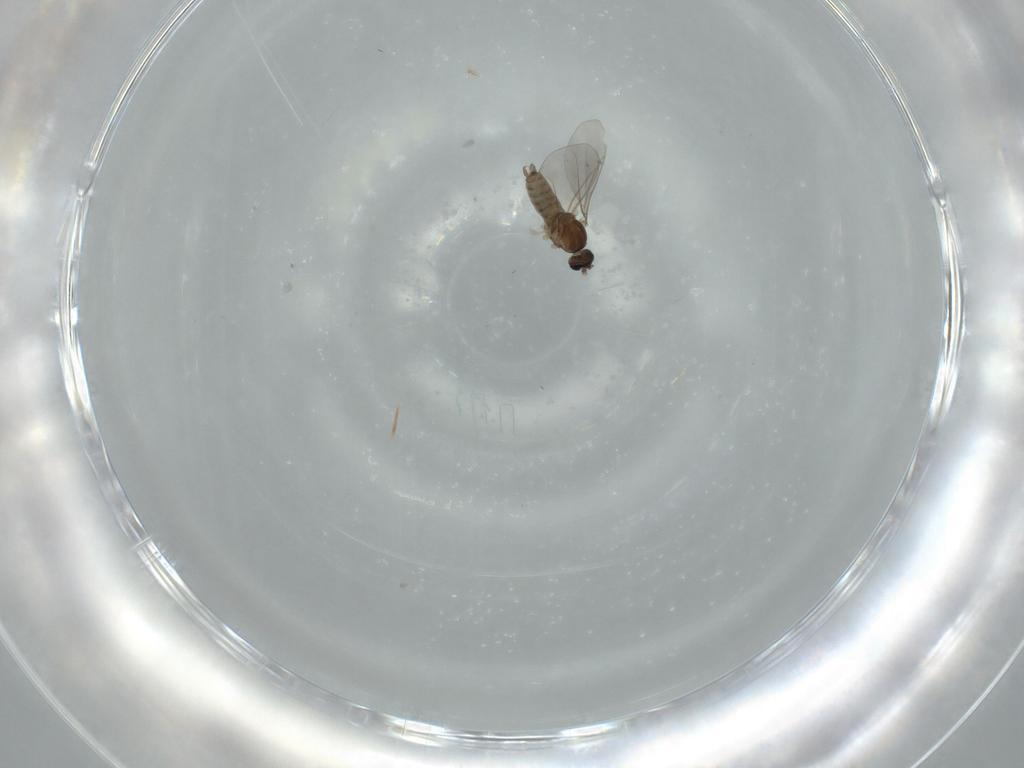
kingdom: Animalia
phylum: Arthropoda
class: Insecta
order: Diptera
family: Cecidomyiidae
